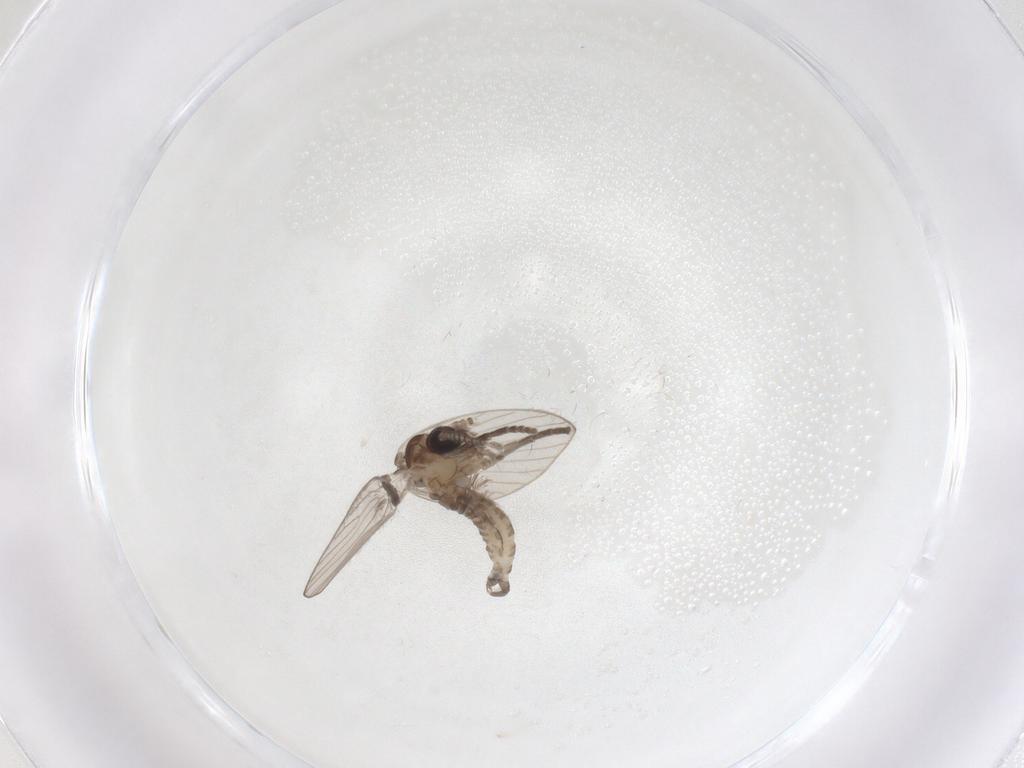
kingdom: Animalia
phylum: Arthropoda
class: Insecta
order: Diptera
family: Psychodidae
